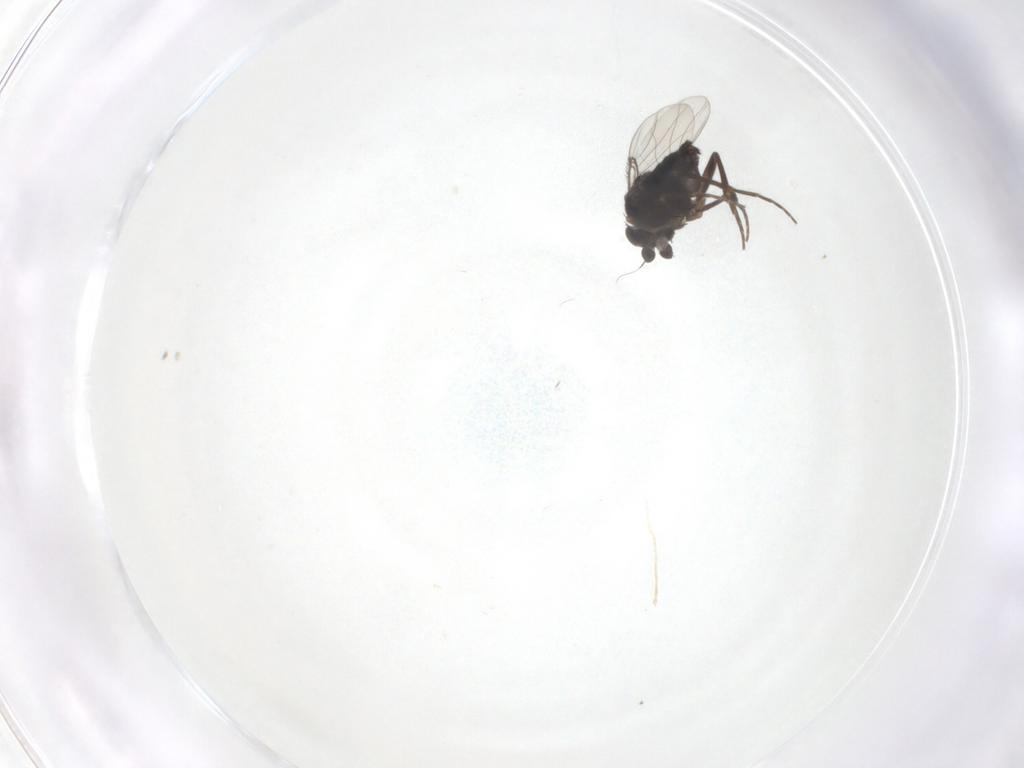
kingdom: Animalia
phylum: Arthropoda
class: Insecta
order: Diptera
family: Phoridae
